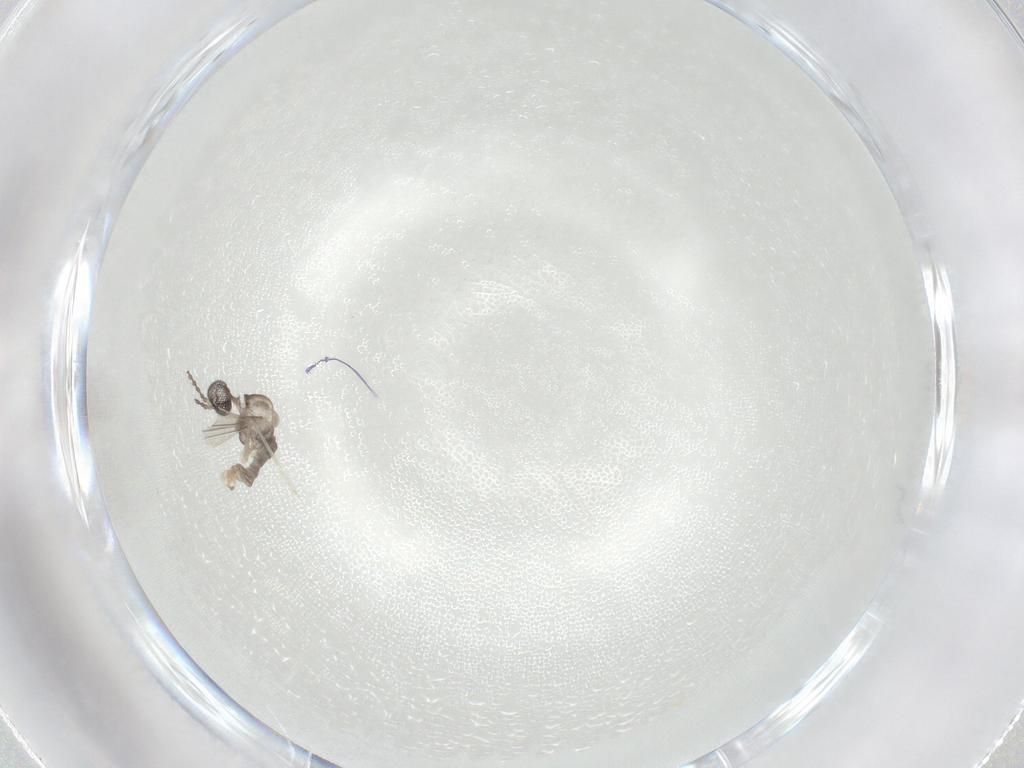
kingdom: Animalia
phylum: Arthropoda
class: Insecta
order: Diptera
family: Cecidomyiidae
